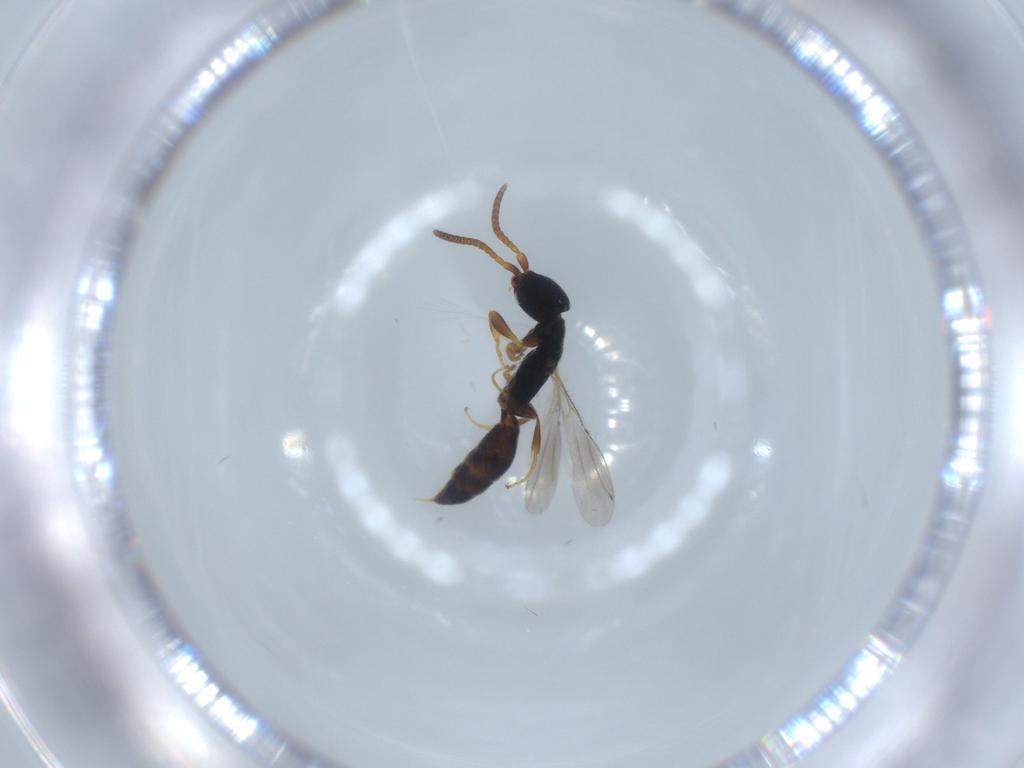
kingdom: Animalia
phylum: Arthropoda
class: Insecta
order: Hymenoptera
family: Bethylidae
